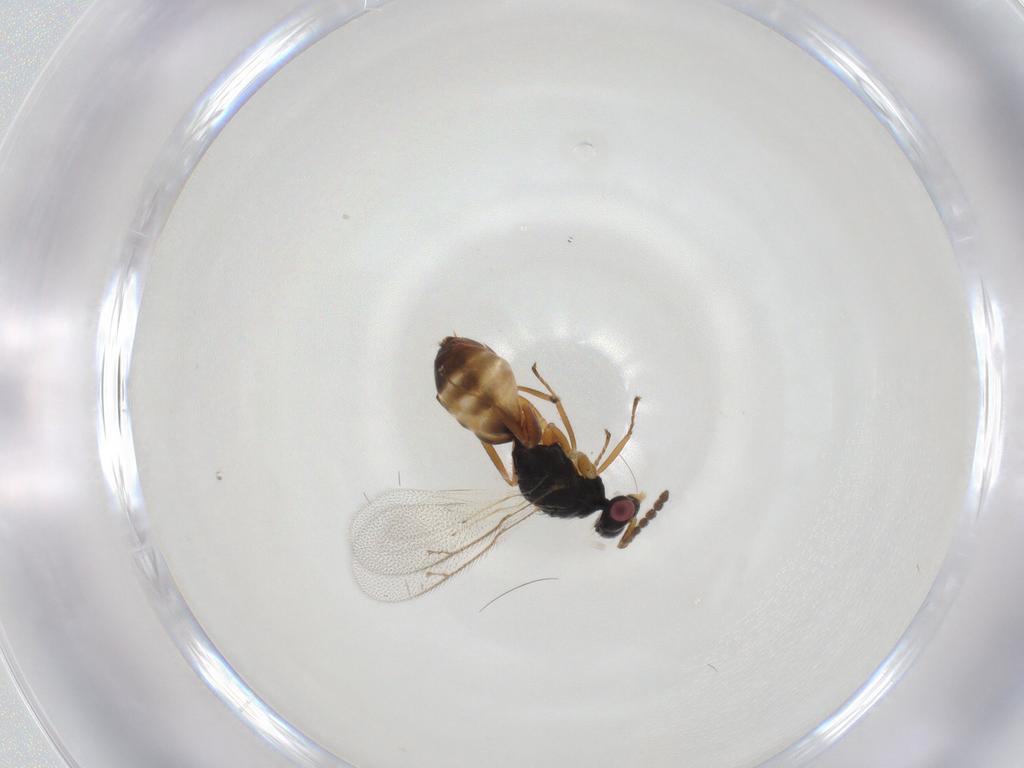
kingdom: Animalia
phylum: Arthropoda
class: Insecta
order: Hymenoptera
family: Eulophidae
